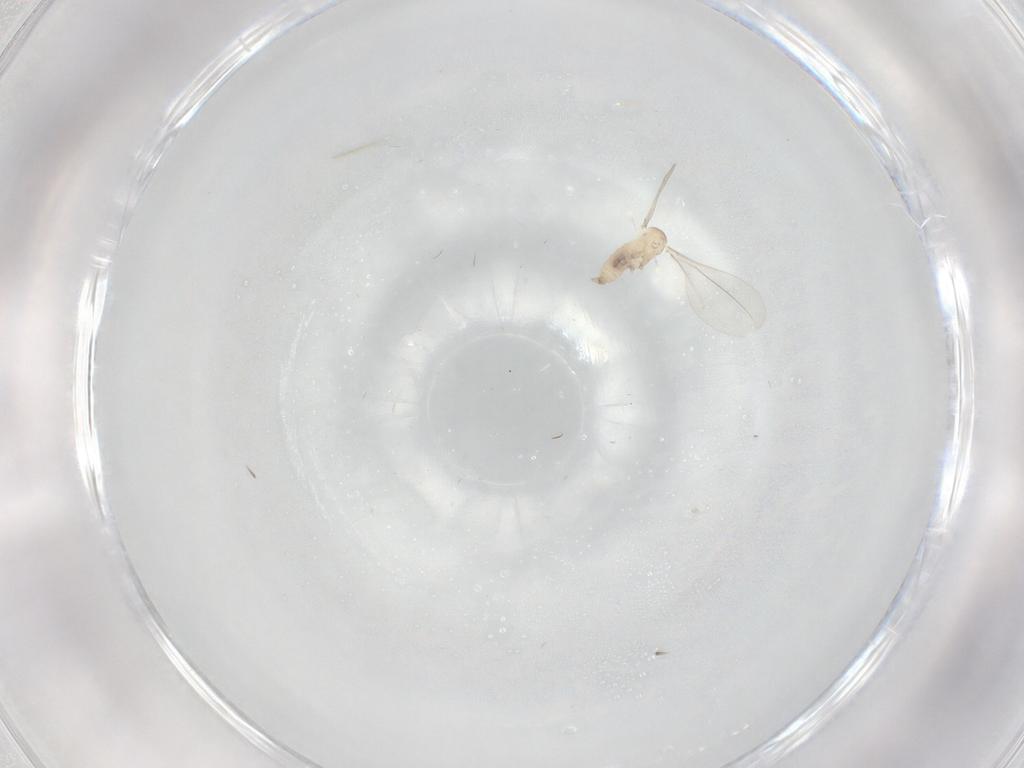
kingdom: Animalia
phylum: Arthropoda
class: Insecta
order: Diptera
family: Cecidomyiidae
